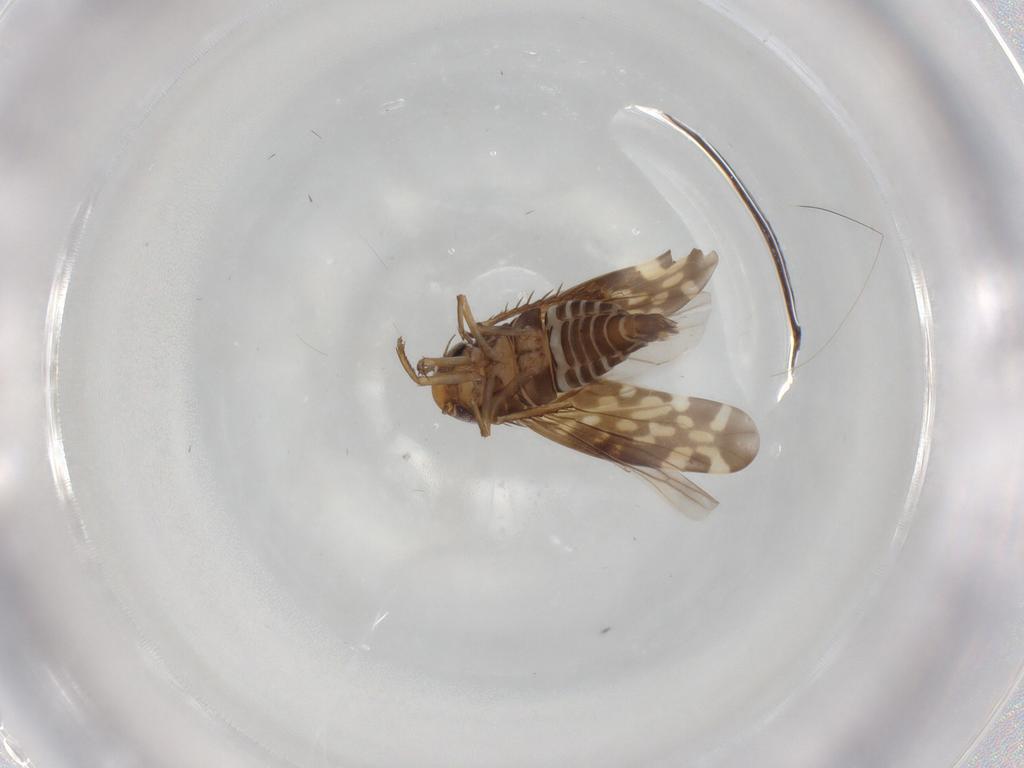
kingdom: Animalia
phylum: Arthropoda
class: Insecta
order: Hemiptera
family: Cicadellidae
